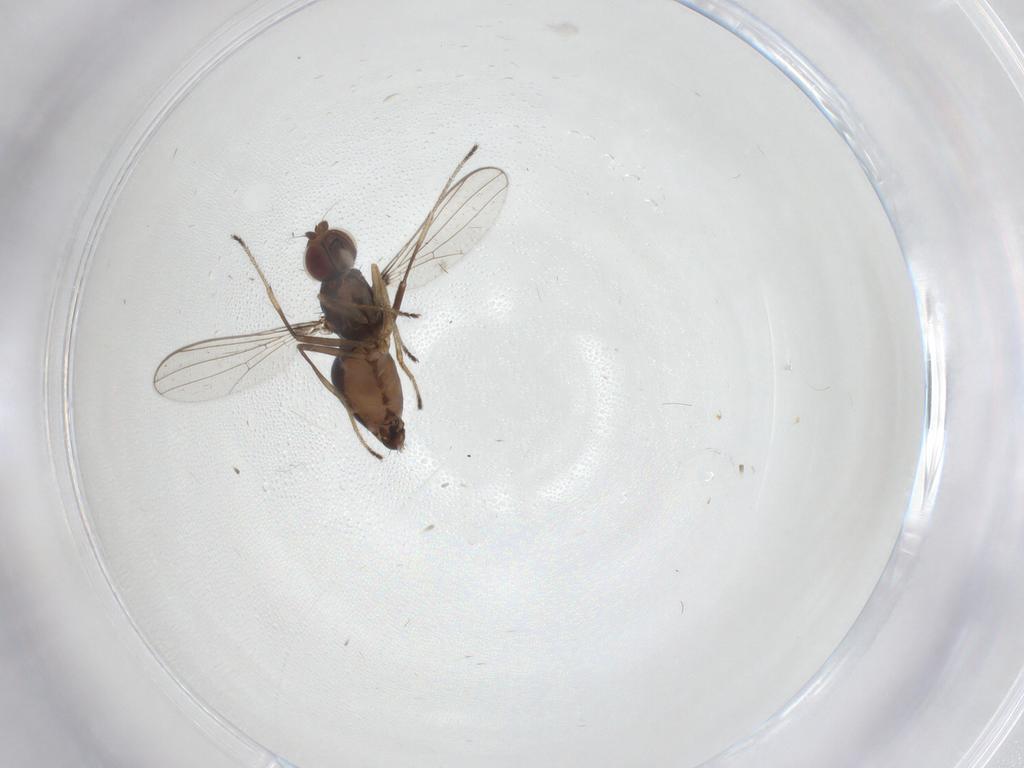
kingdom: Animalia
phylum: Arthropoda
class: Insecta
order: Diptera
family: Sepsidae
